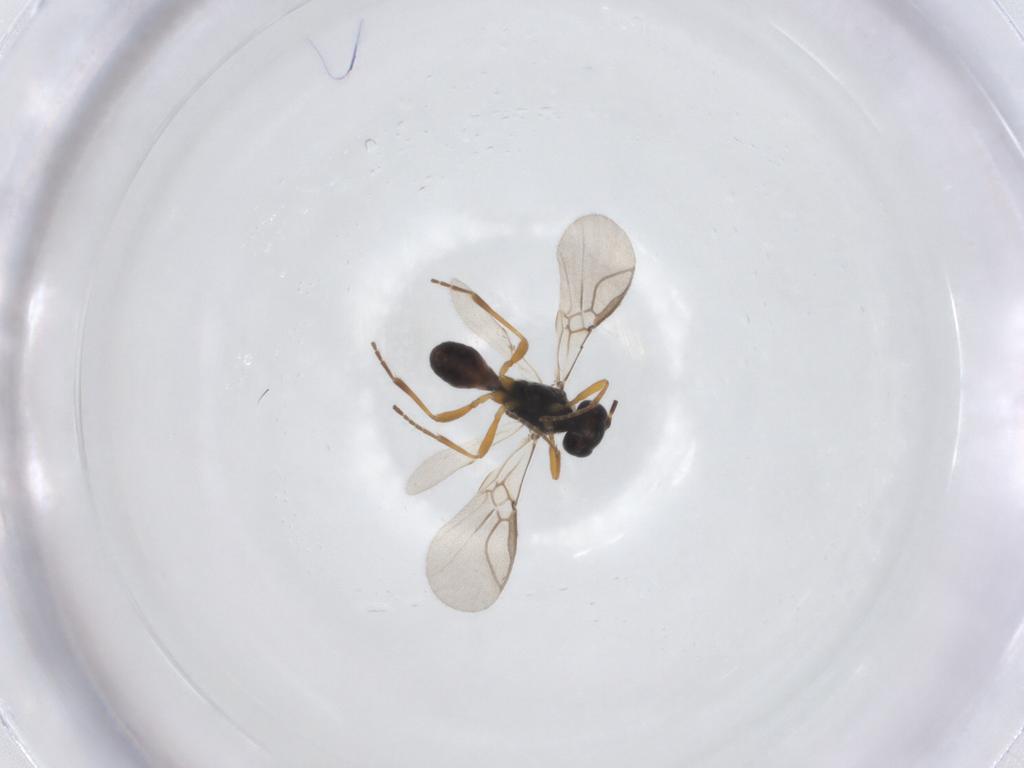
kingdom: Animalia
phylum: Arthropoda
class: Insecta
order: Hymenoptera
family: Braconidae
